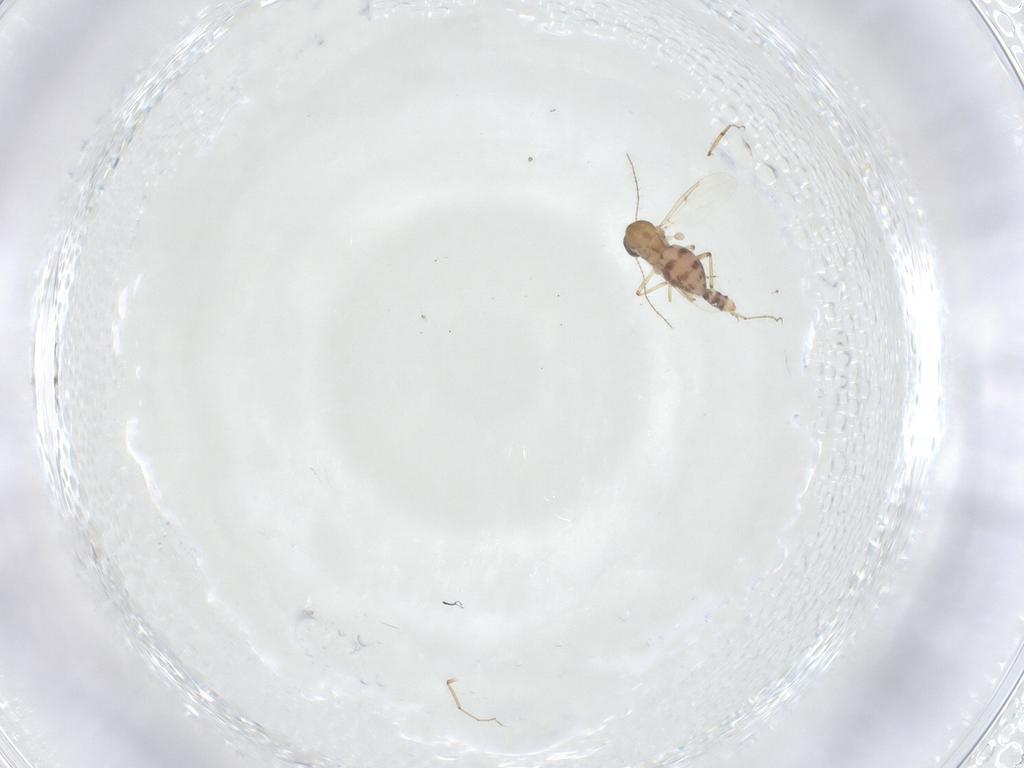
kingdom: Animalia
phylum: Arthropoda
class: Insecta
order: Diptera
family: Ceratopogonidae
